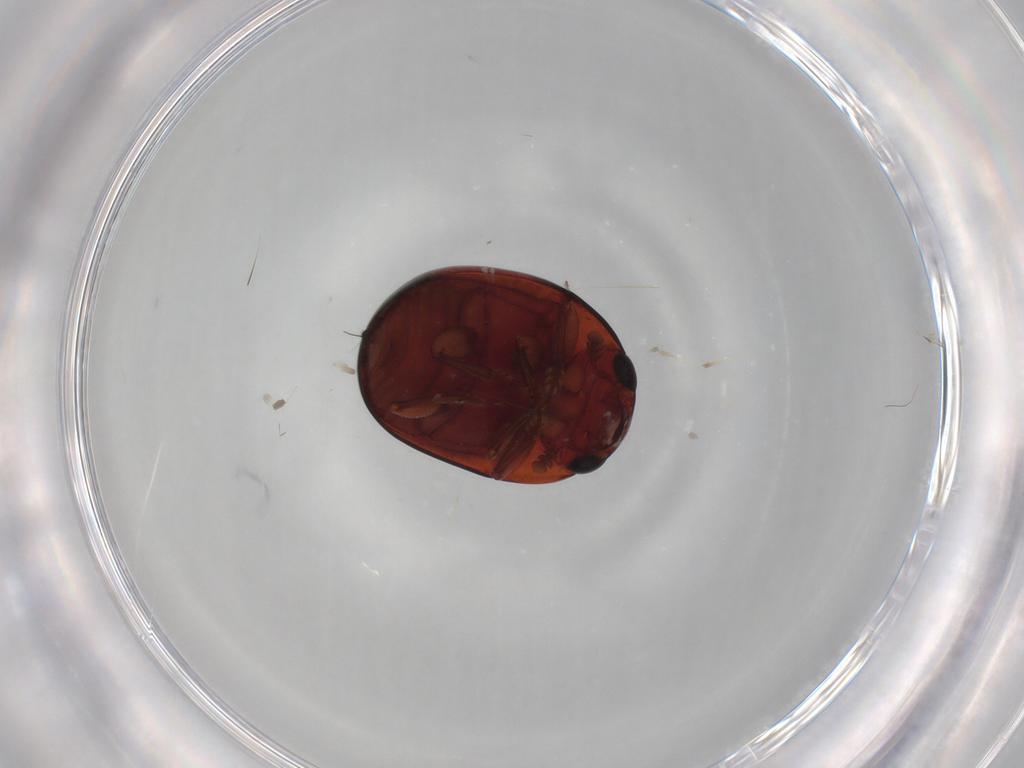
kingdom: Animalia
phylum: Arthropoda
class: Insecta
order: Coleoptera
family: Nitidulidae
